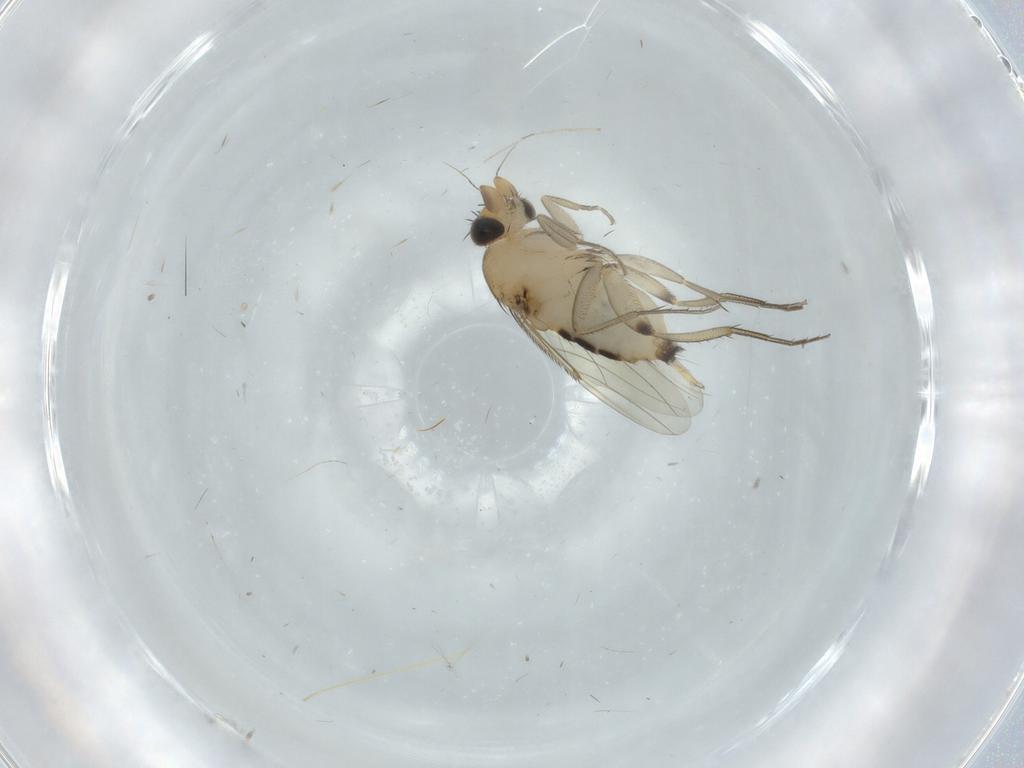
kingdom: Animalia
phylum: Arthropoda
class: Insecta
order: Diptera
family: Phoridae
